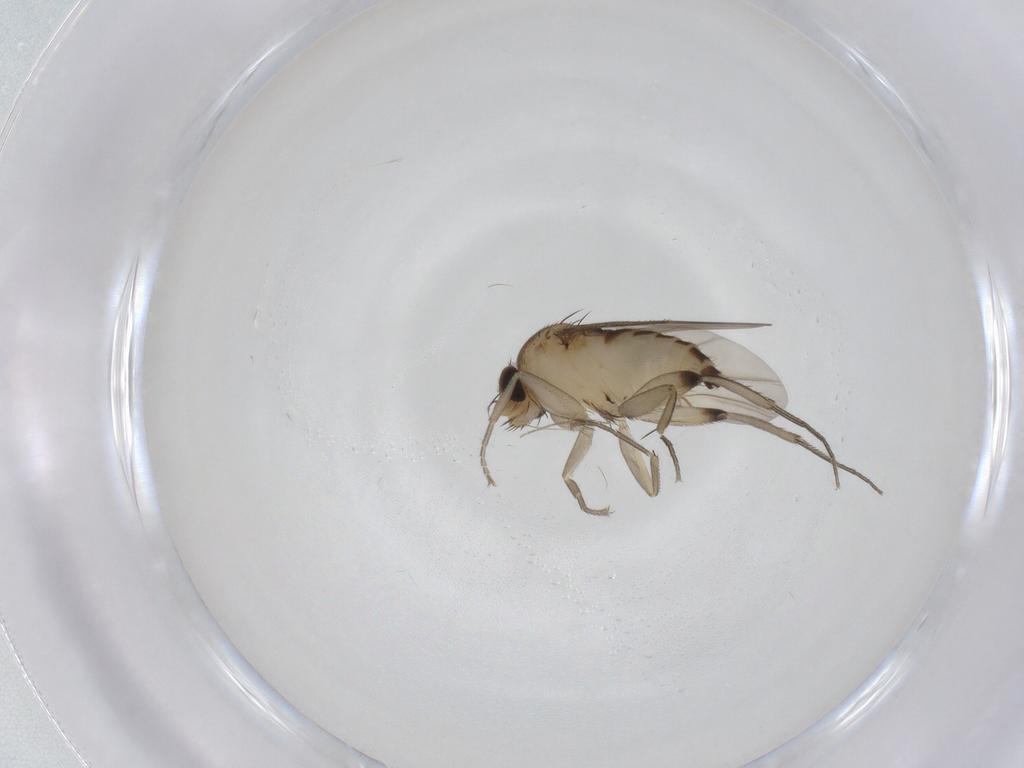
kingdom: Animalia
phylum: Arthropoda
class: Insecta
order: Diptera
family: Phoridae
